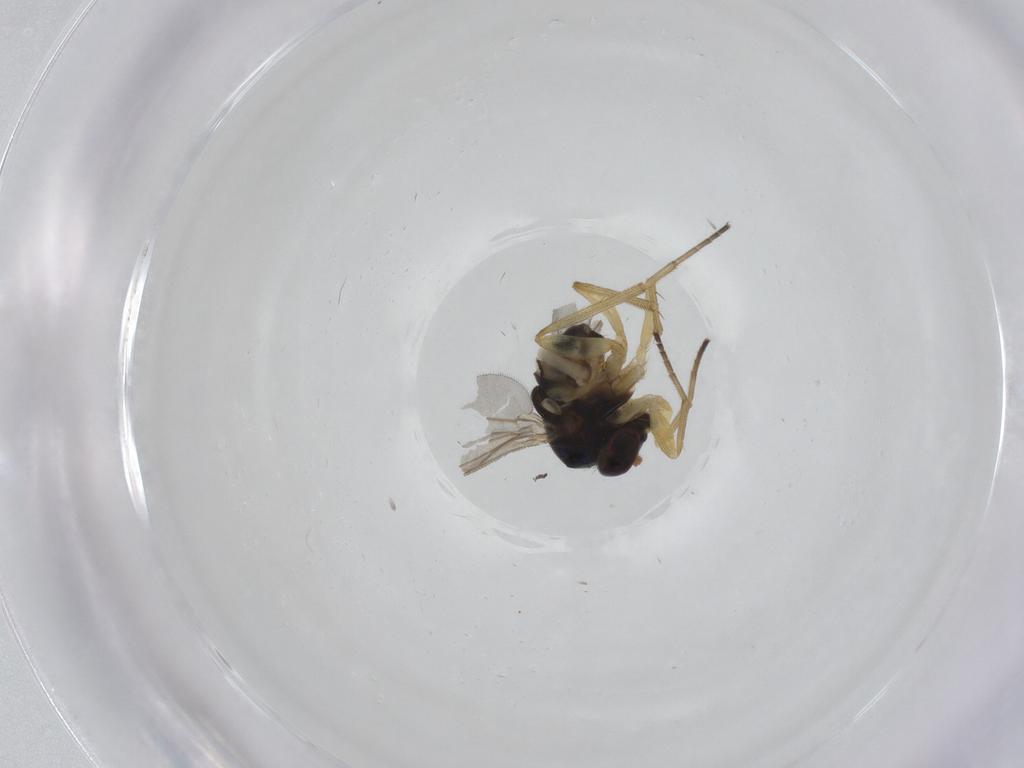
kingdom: Animalia
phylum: Arthropoda
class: Insecta
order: Diptera
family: Dolichopodidae
